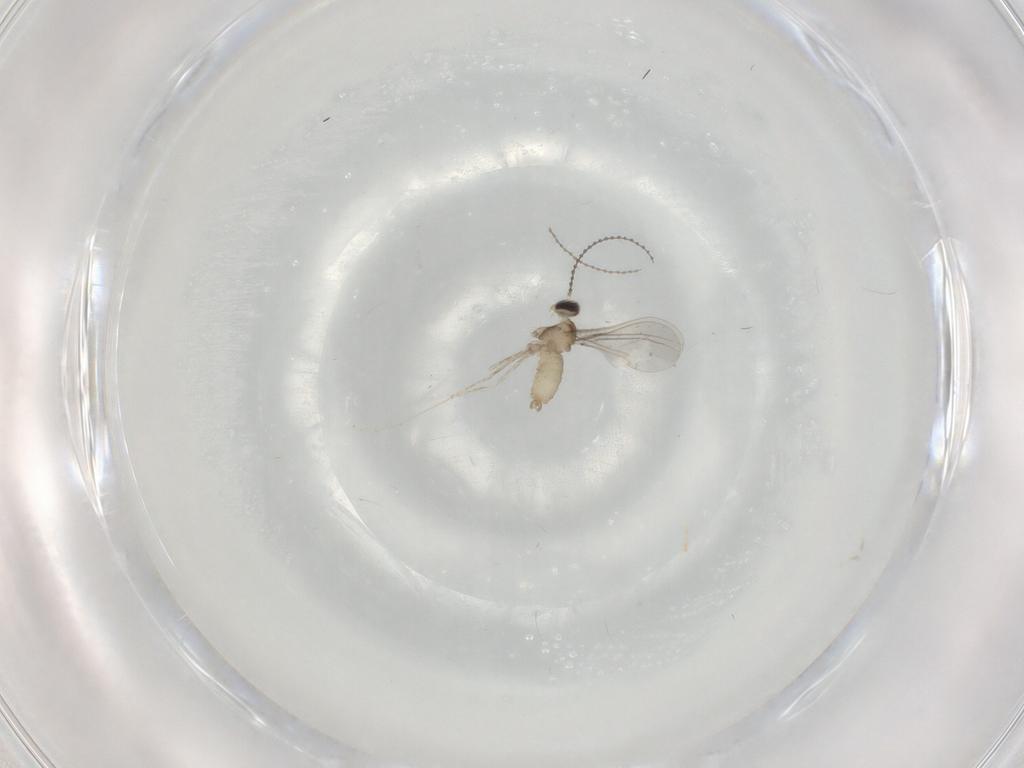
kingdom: Animalia
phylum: Arthropoda
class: Insecta
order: Diptera
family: Cecidomyiidae
